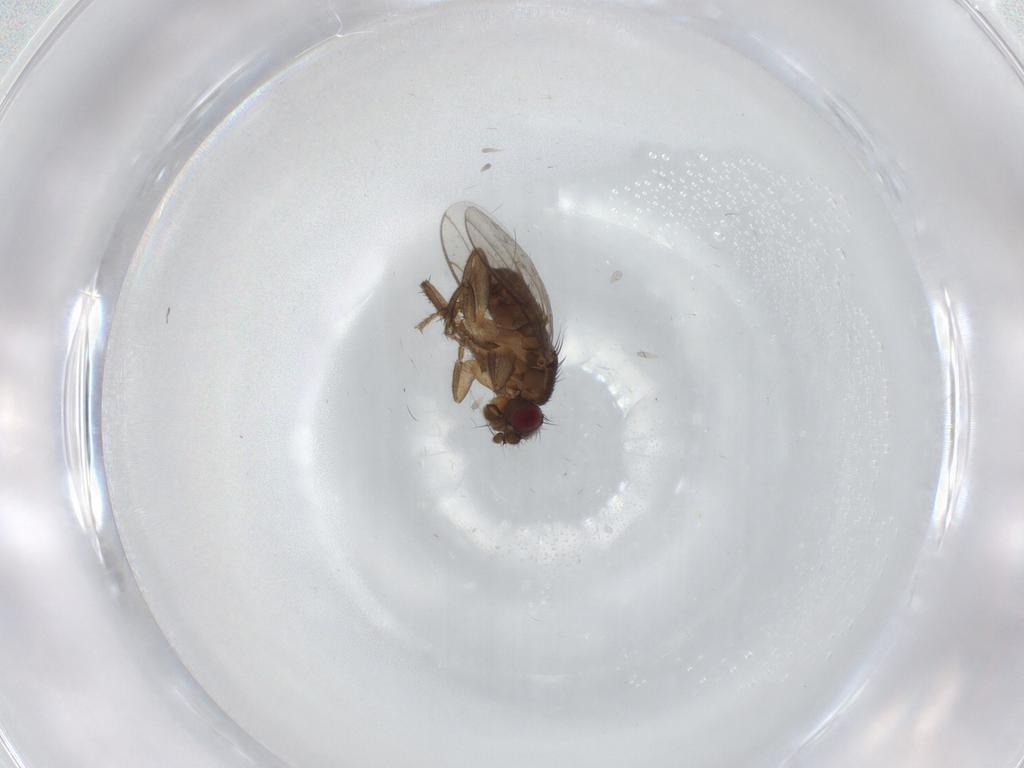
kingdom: Animalia
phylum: Arthropoda
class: Insecta
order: Diptera
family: Sphaeroceridae
